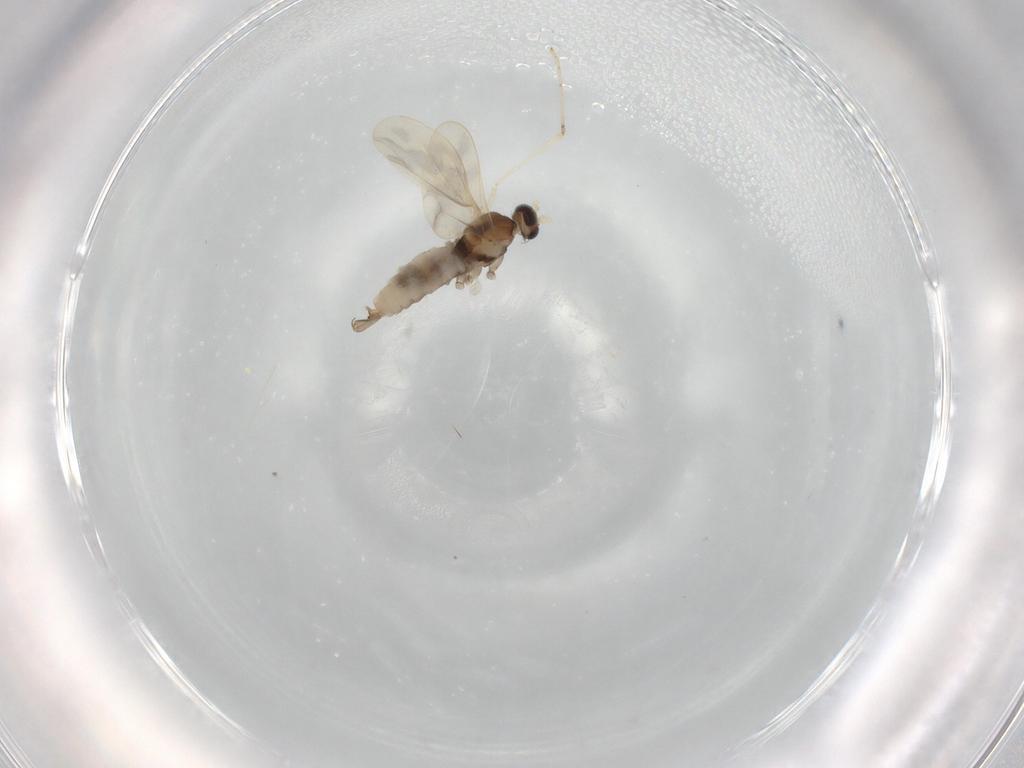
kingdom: Animalia
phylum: Arthropoda
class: Insecta
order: Diptera
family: Cecidomyiidae
